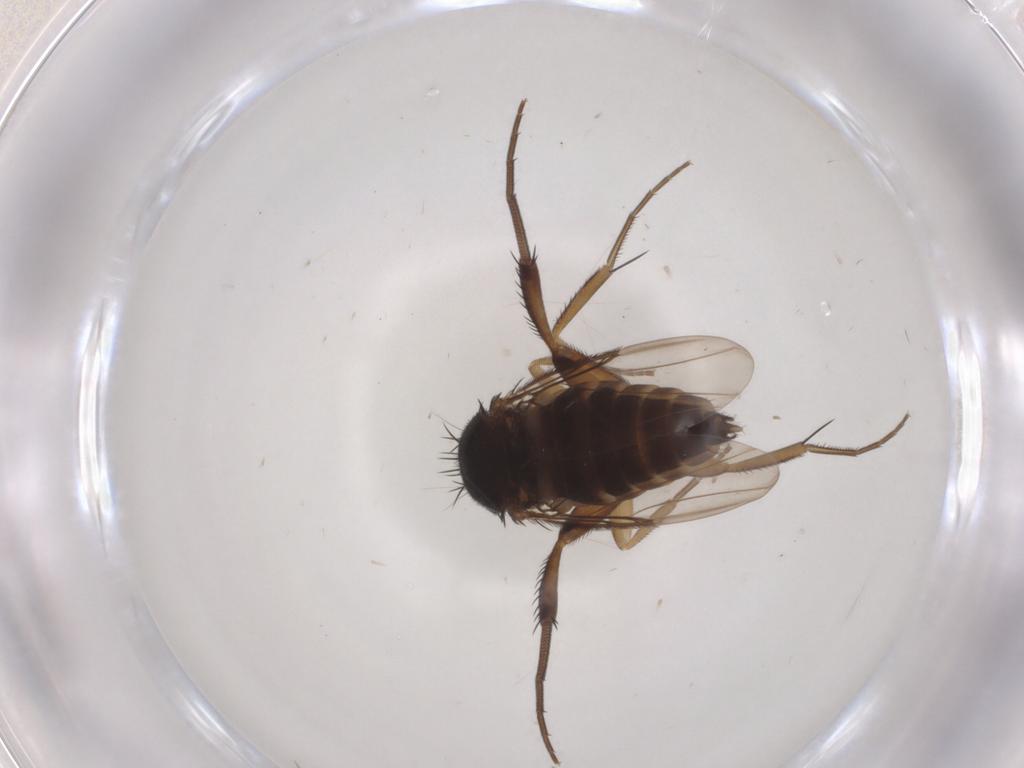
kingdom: Animalia
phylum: Arthropoda
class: Insecta
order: Diptera
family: Phoridae
